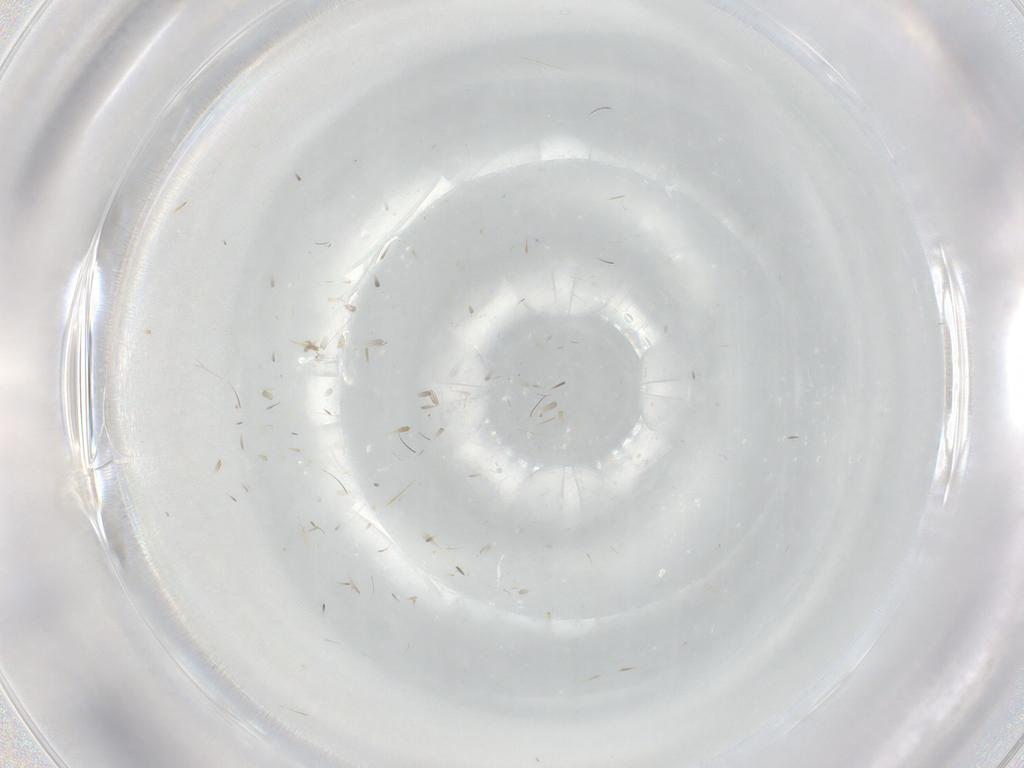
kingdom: Animalia
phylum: Arthropoda
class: Insecta
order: Diptera
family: Cecidomyiidae
